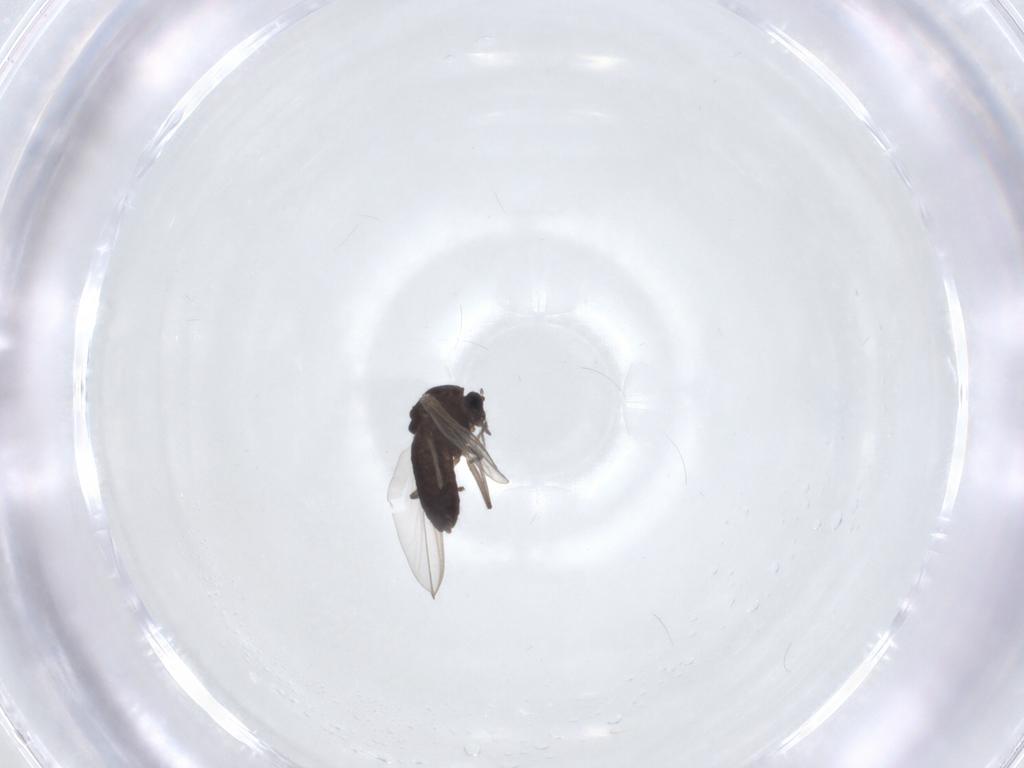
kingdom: Animalia
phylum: Arthropoda
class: Insecta
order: Diptera
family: Chironomidae
